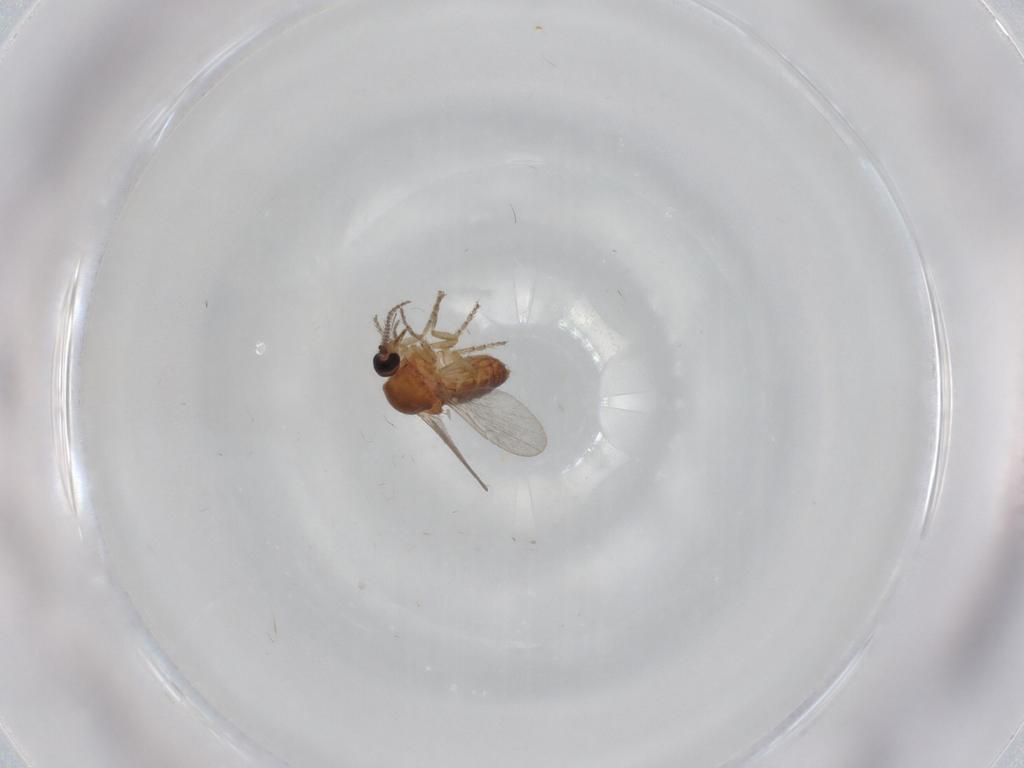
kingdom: Animalia
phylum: Arthropoda
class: Insecta
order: Diptera
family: Ceratopogonidae
